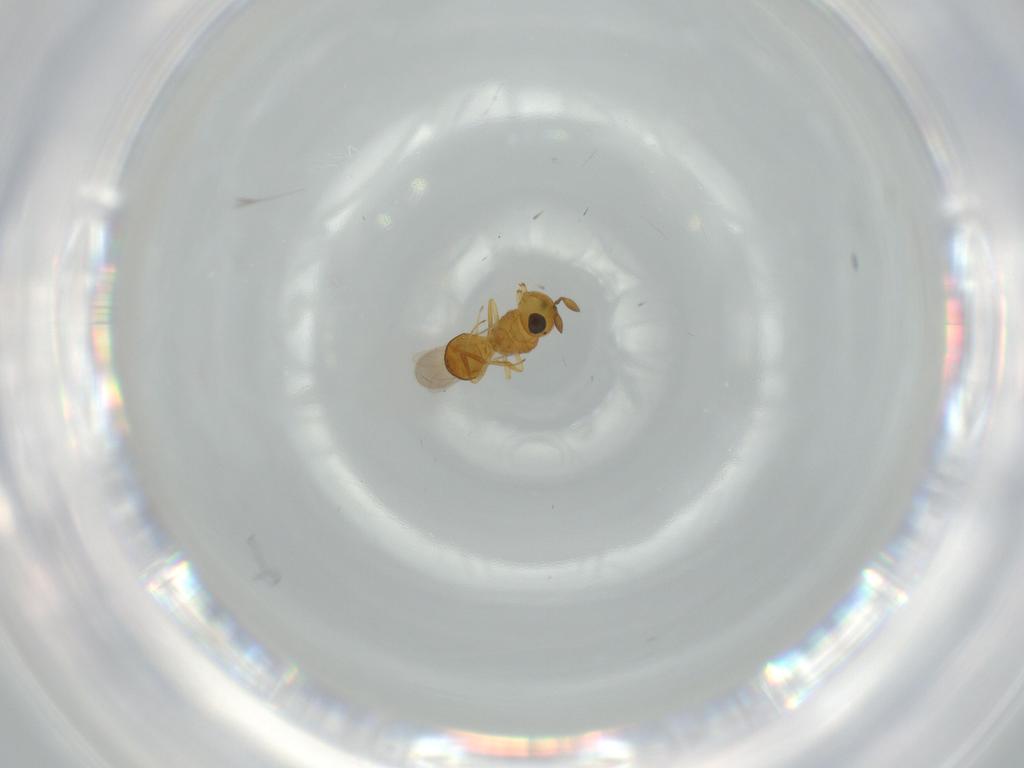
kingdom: Animalia
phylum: Arthropoda
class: Insecta
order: Hymenoptera
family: Scelionidae
